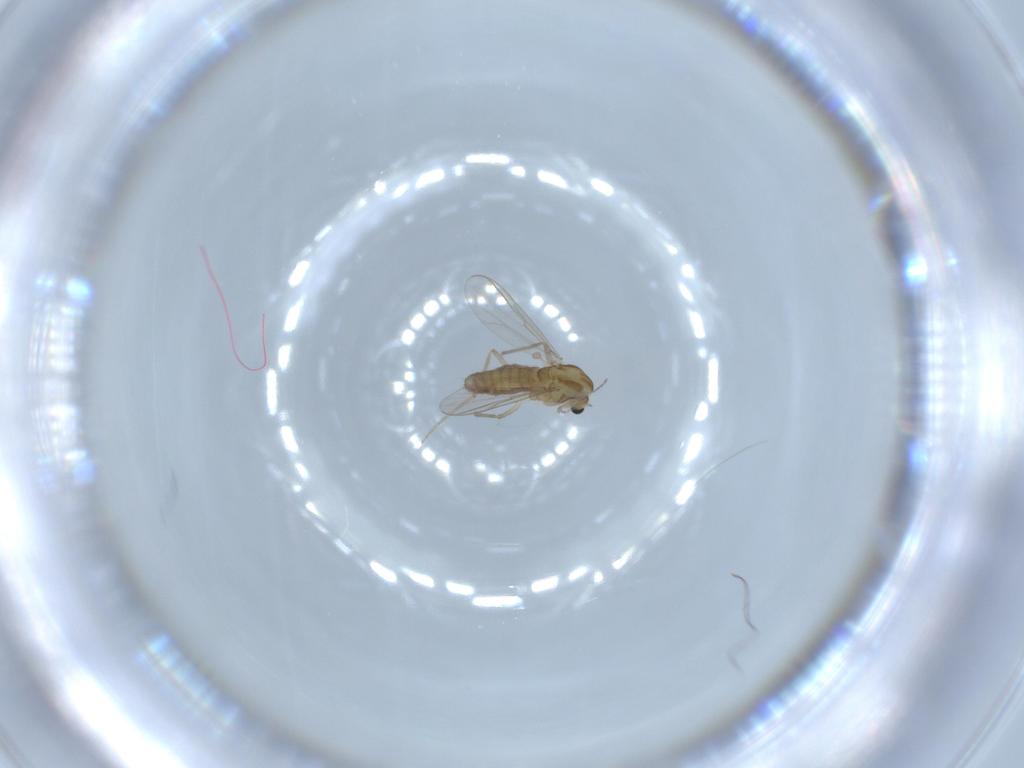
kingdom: Animalia
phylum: Arthropoda
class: Insecta
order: Diptera
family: Chironomidae
